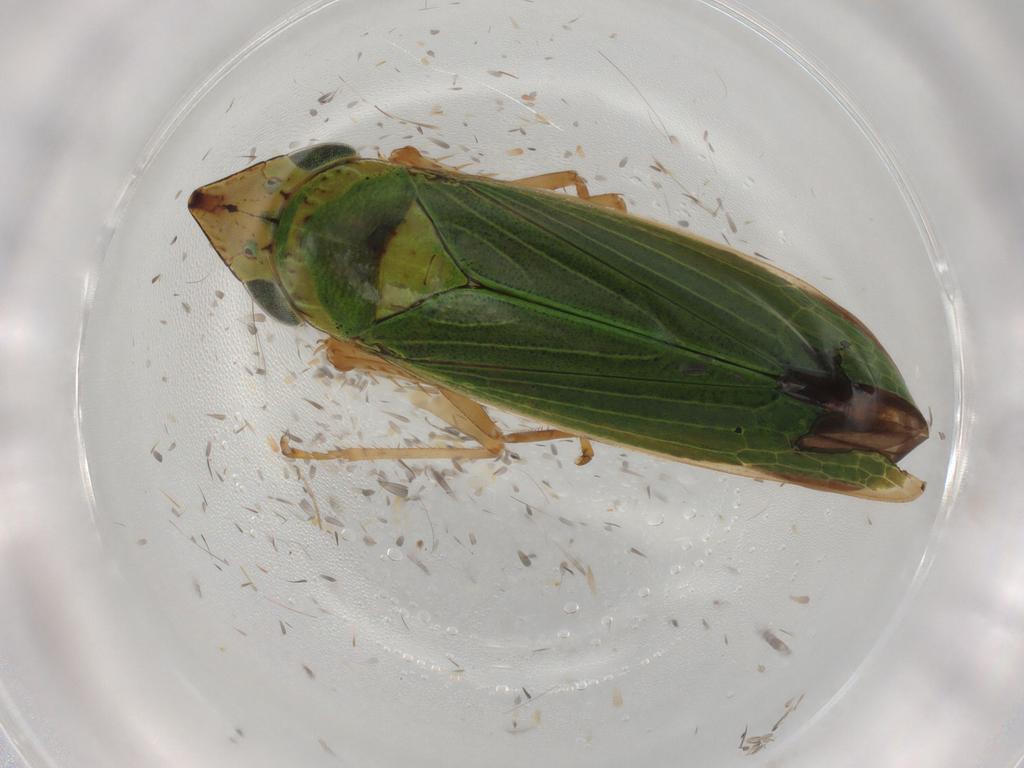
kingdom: Animalia
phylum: Arthropoda
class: Insecta
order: Hemiptera
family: Cicadellidae
